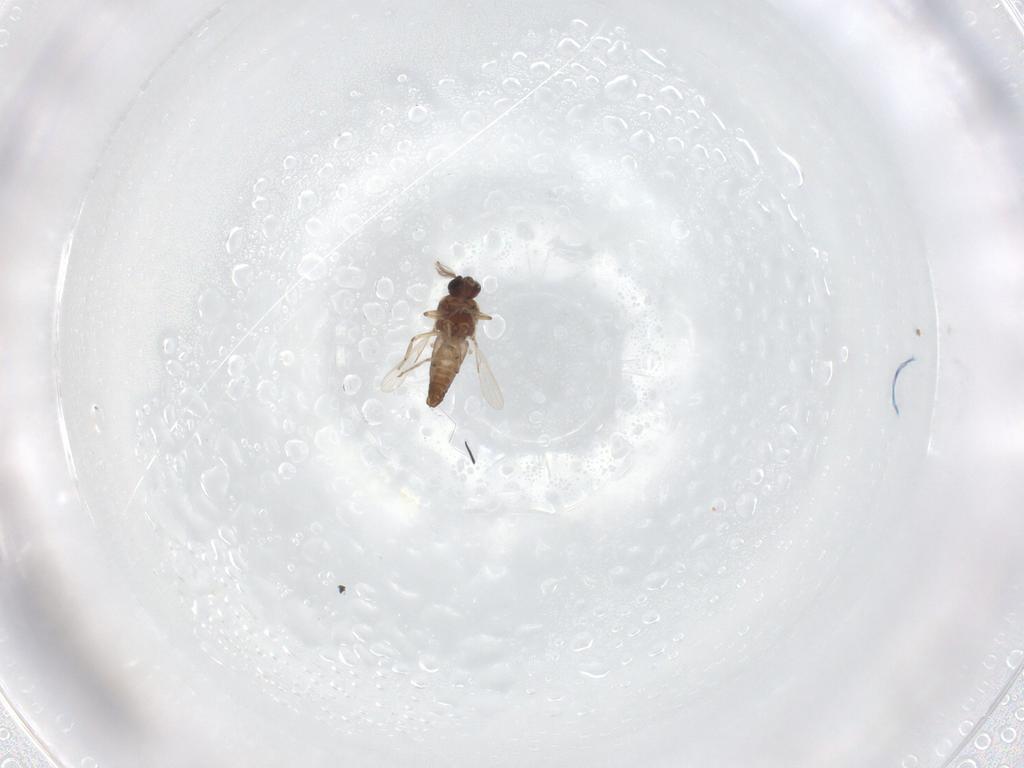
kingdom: Animalia
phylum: Arthropoda
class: Insecta
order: Diptera
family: Ceratopogonidae
